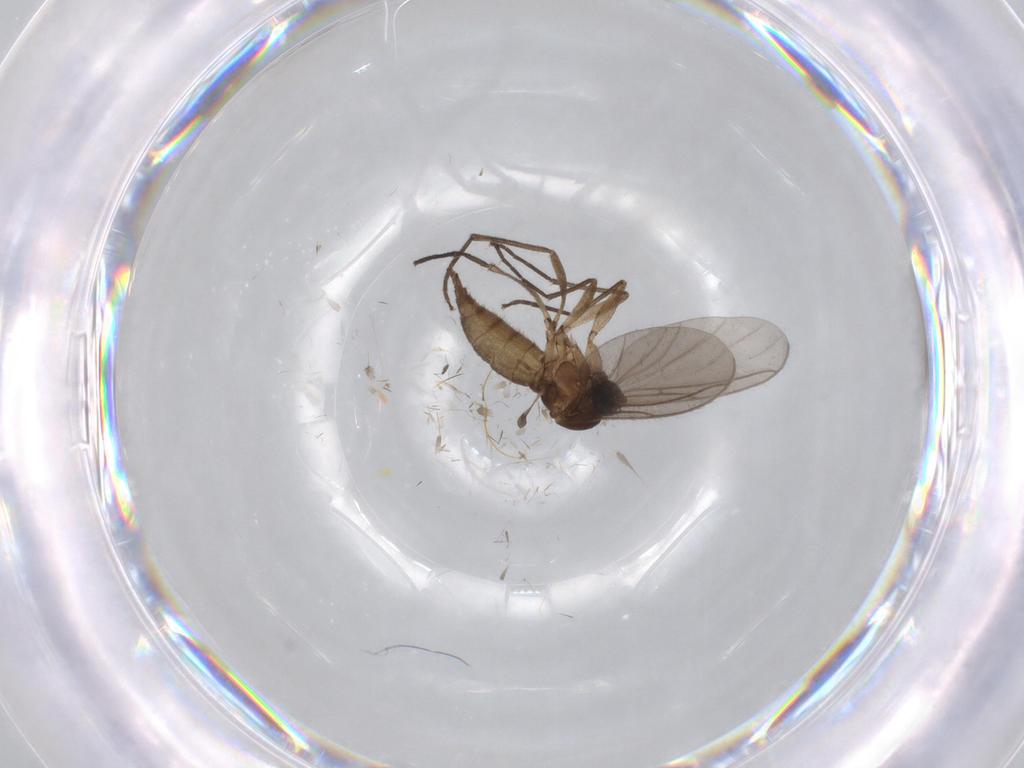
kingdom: Animalia
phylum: Arthropoda
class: Insecta
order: Diptera
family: Sciaridae
